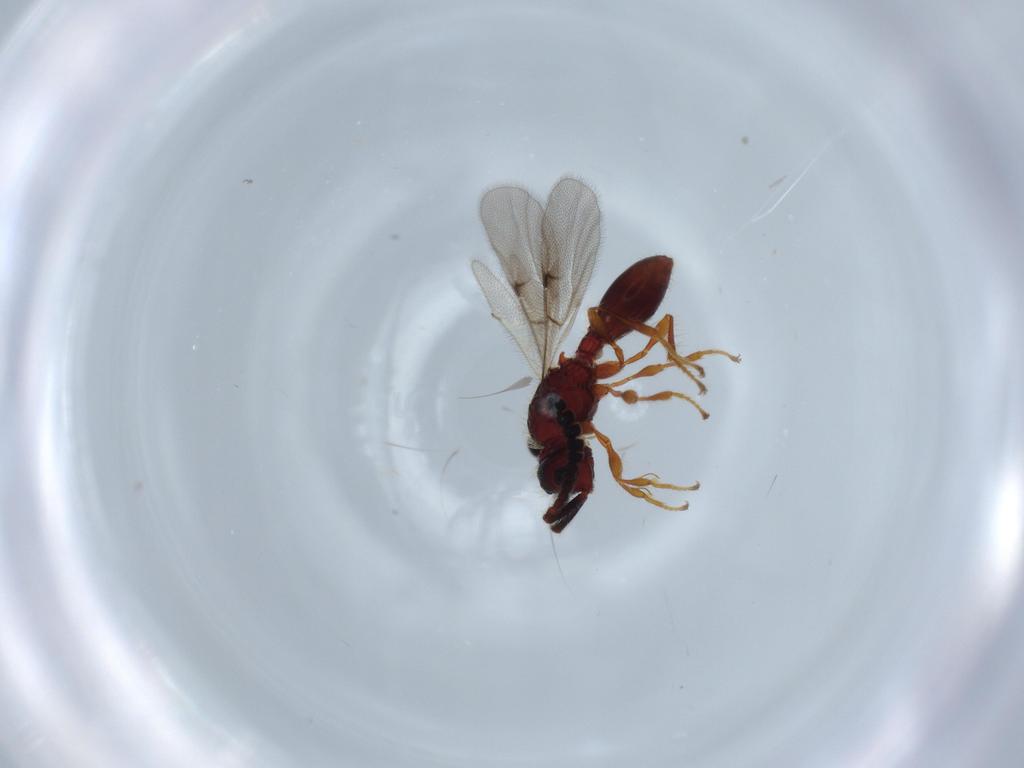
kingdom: Animalia
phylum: Arthropoda
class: Insecta
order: Hymenoptera
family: Diapriidae
